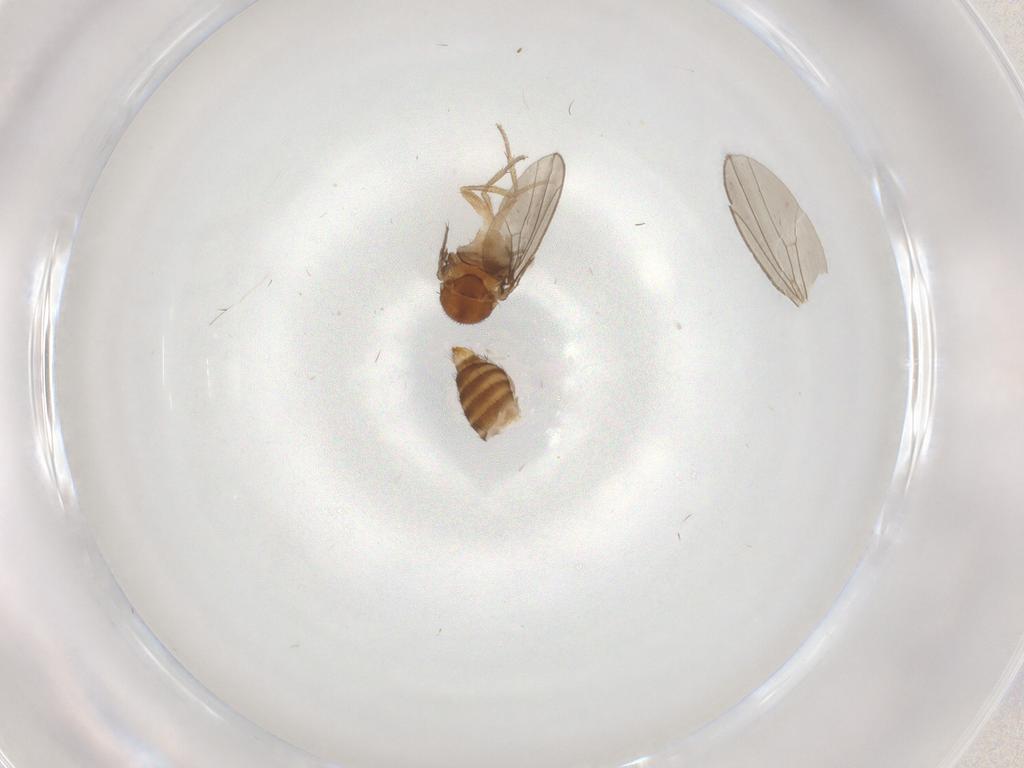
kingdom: Animalia
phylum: Arthropoda
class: Insecta
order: Diptera
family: Drosophilidae
